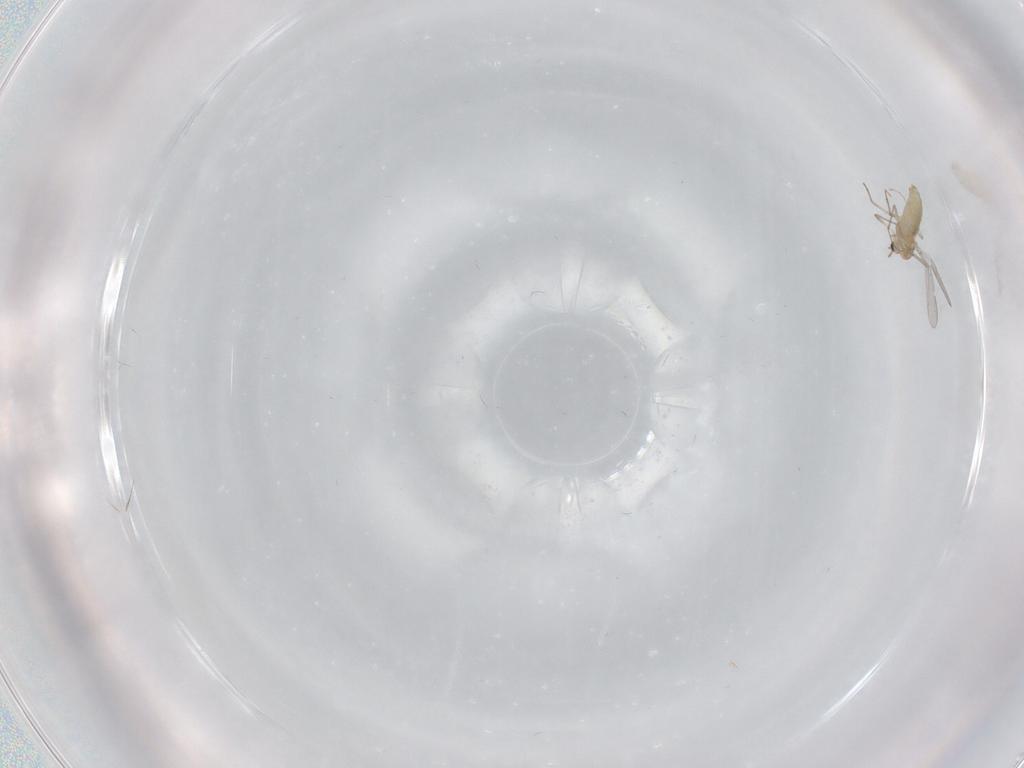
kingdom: Animalia
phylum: Arthropoda
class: Insecta
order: Diptera
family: Chironomidae
